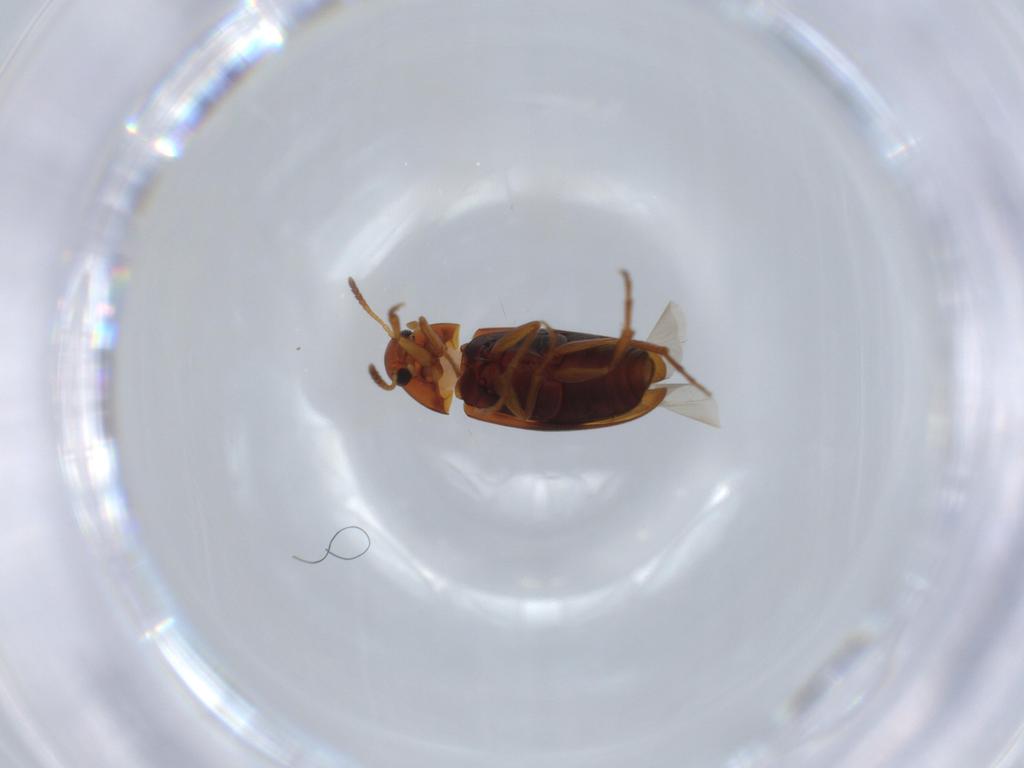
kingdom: Animalia
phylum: Arthropoda
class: Insecta
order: Coleoptera
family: Scraptiidae
